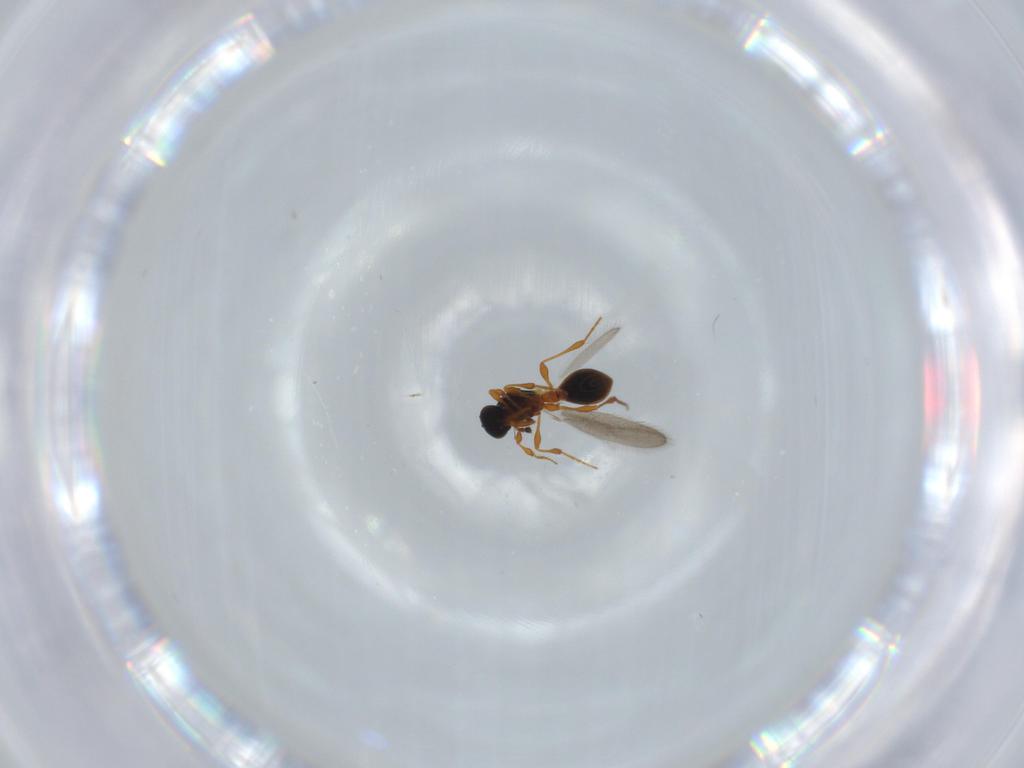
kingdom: Animalia
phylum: Arthropoda
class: Insecta
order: Hymenoptera
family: Platygastridae
